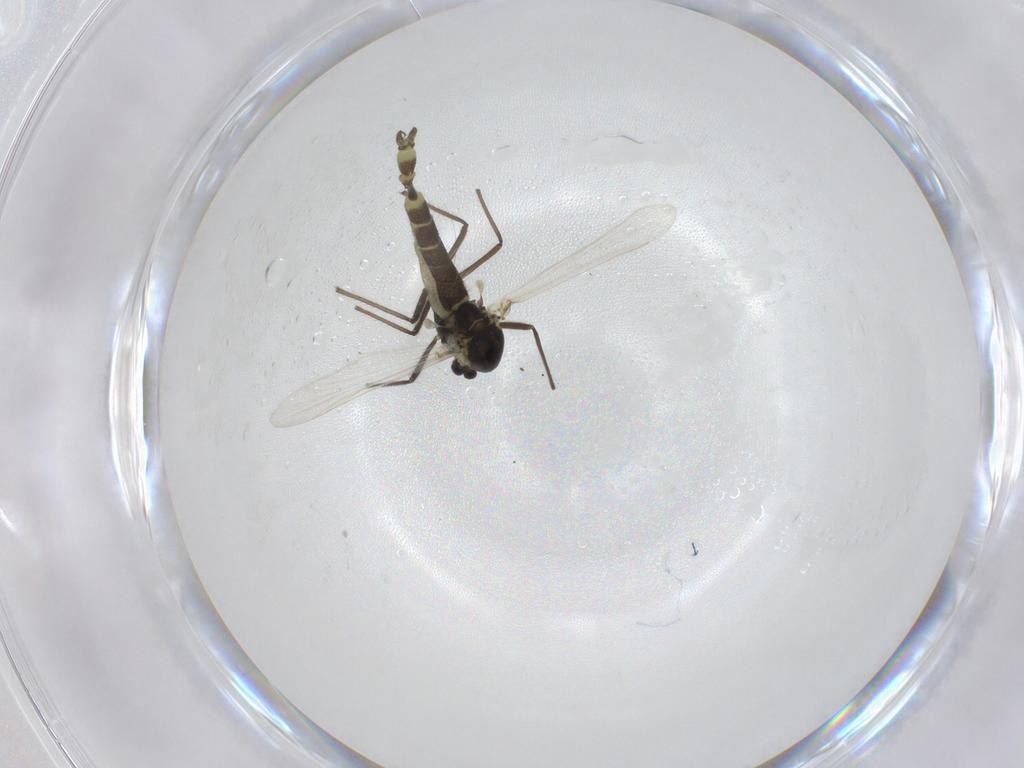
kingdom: Animalia
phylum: Arthropoda
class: Insecta
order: Diptera
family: Chironomidae
